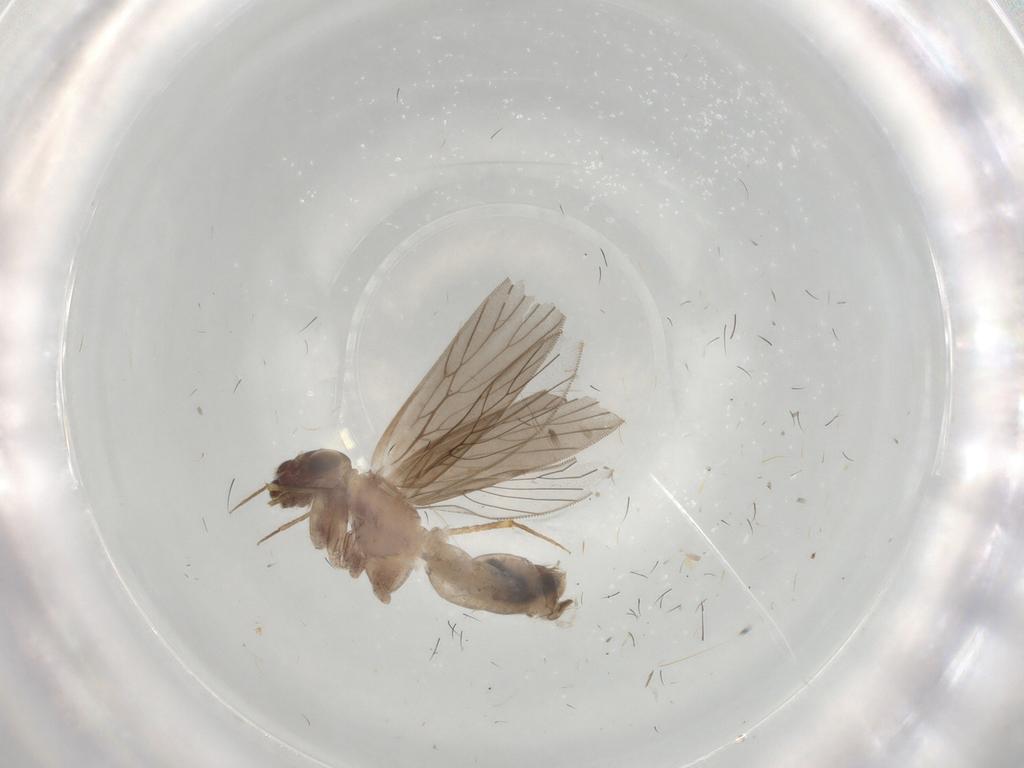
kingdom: Animalia
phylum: Arthropoda
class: Insecta
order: Psocodea
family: Lepidopsocidae
